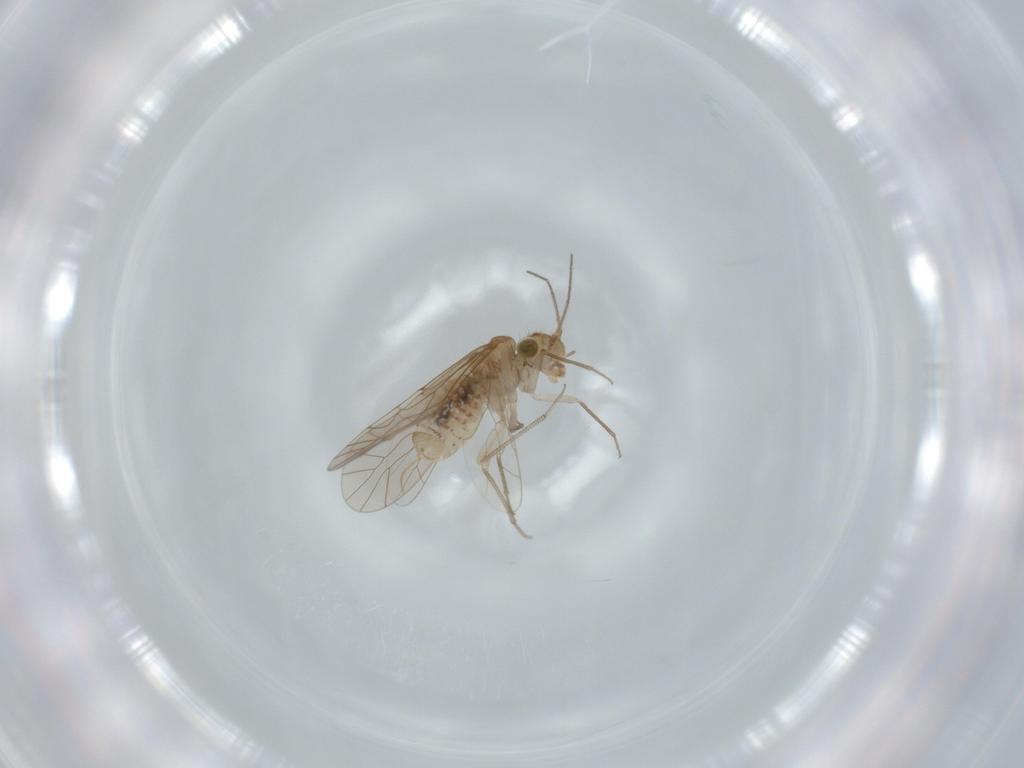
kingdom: Animalia
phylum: Arthropoda
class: Insecta
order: Psocodea
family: Lachesillidae
